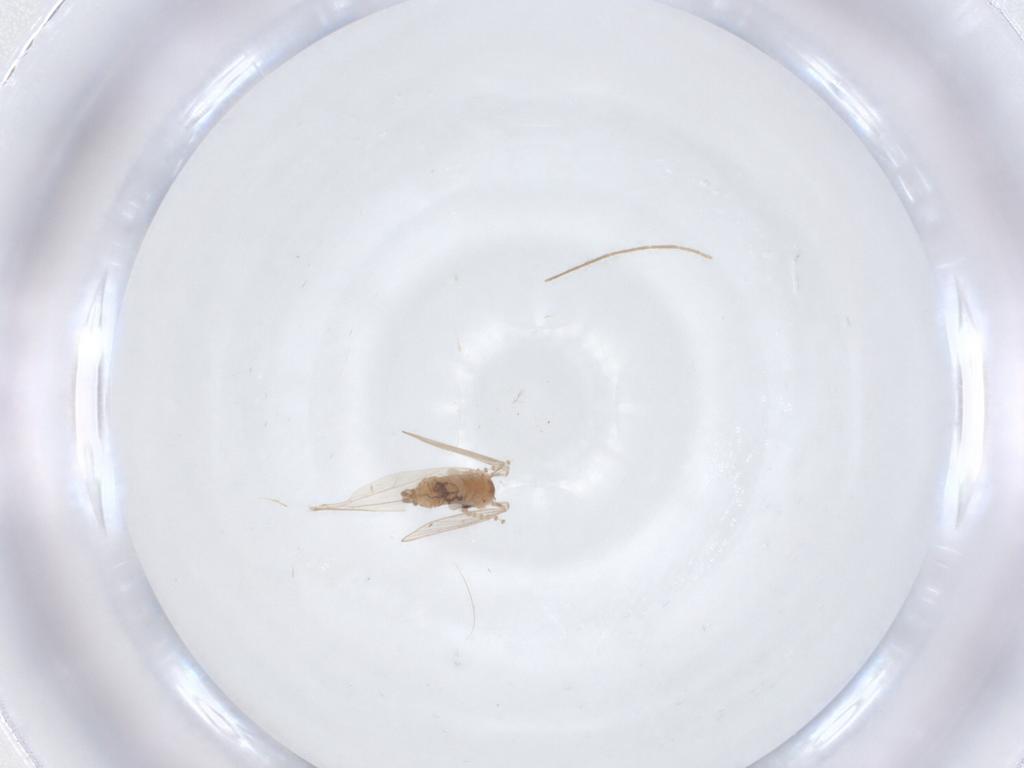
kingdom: Animalia
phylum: Arthropoda
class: Insecta
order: Diptera
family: Psychodidae
